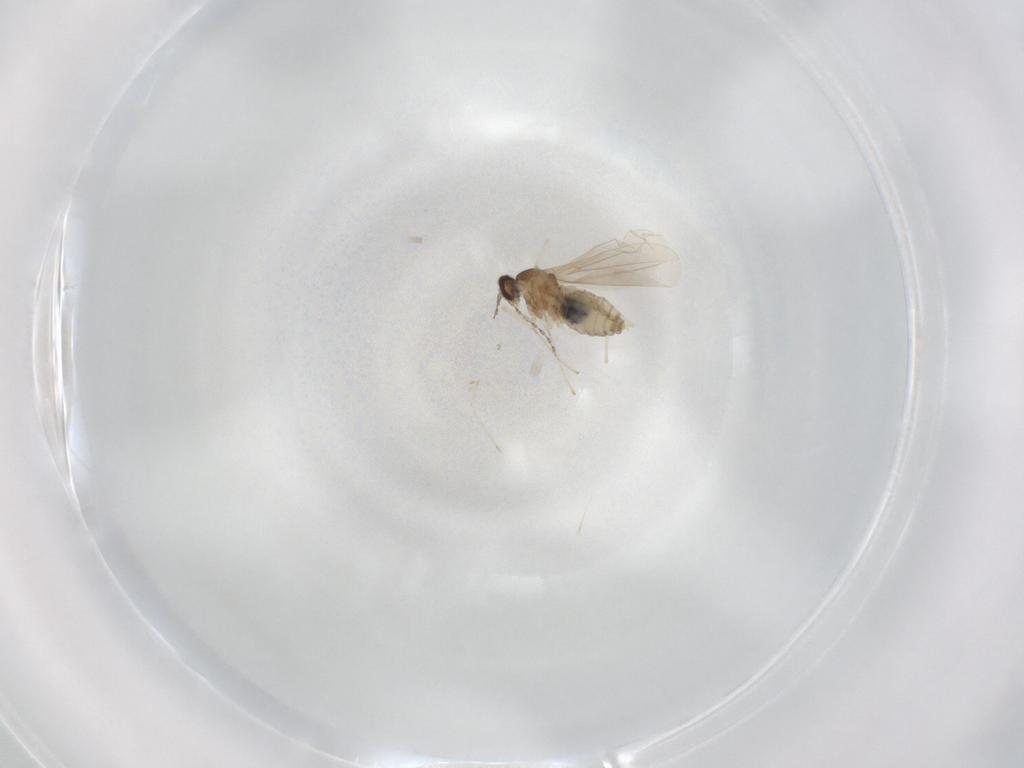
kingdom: Animalia
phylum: Arthropoda
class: Insecta
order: Diptera
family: Cecidomyiidae
